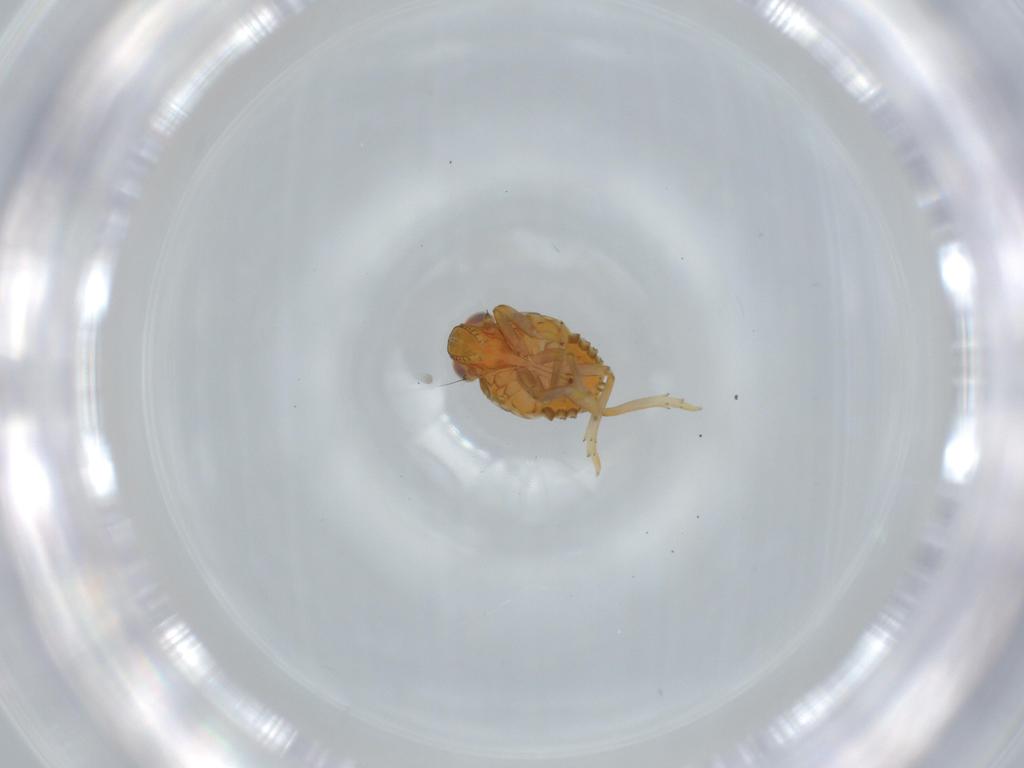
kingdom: Animalia
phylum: Arthropoda
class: Insecta
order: Hemiptera
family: Issidae
